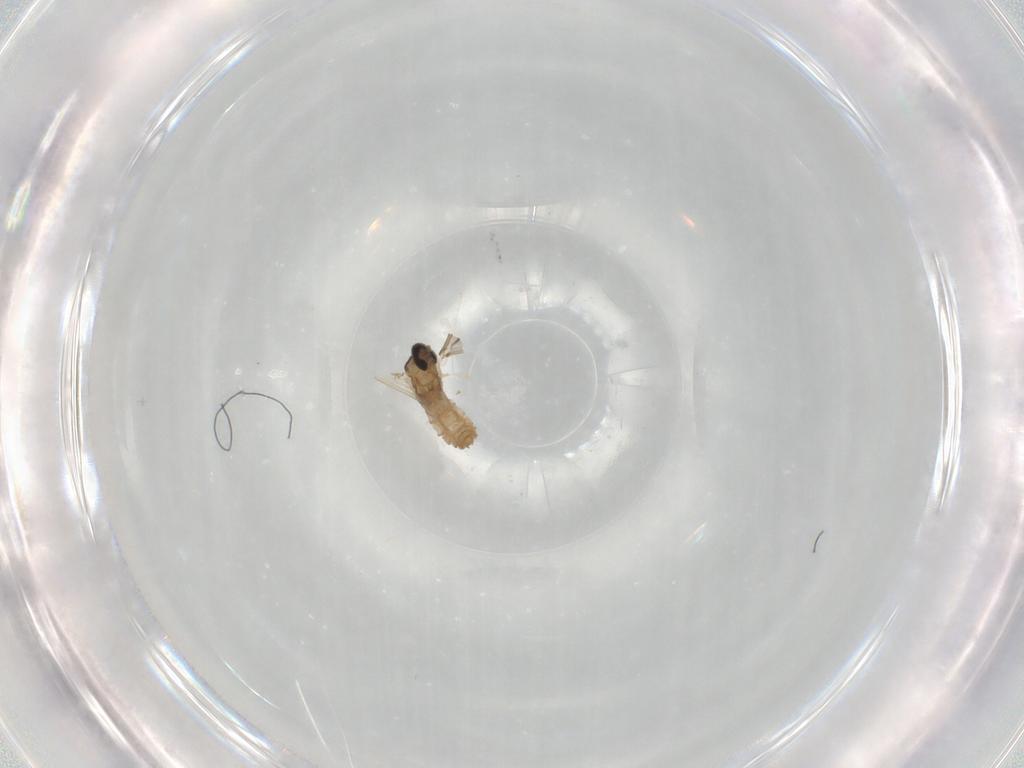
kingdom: Animalia
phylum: Arthropoda
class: Insecta
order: Diptera
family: Cecidomyiidae
